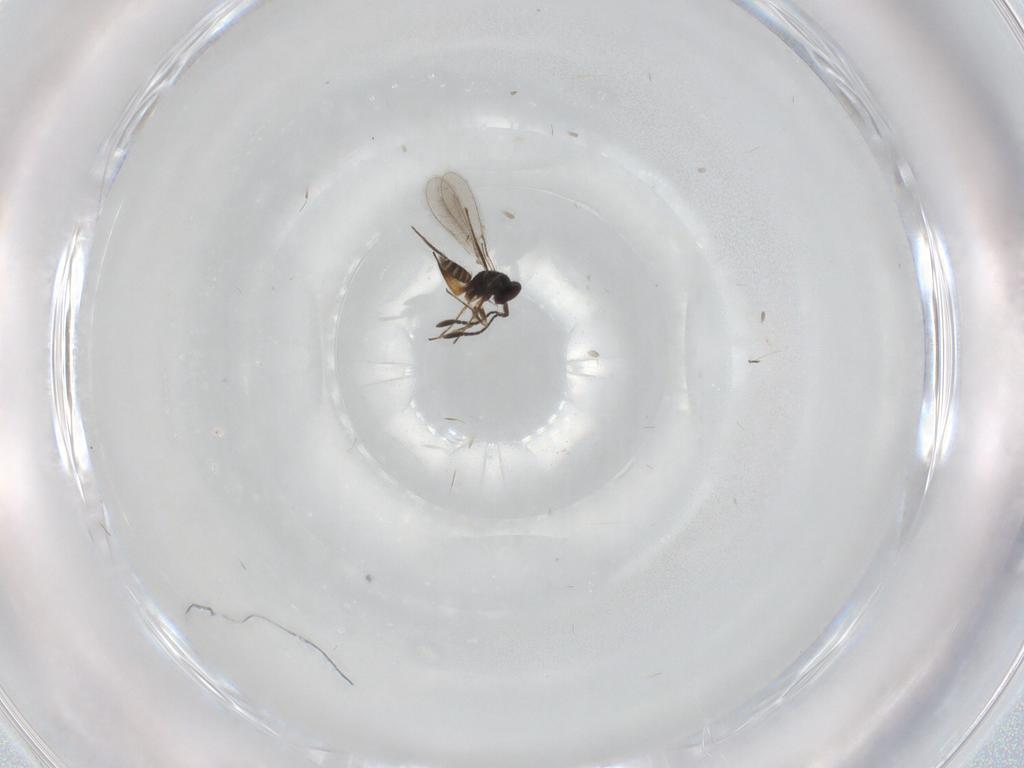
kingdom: Animalia
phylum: Arthropoda
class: Insecta
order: Hymenoptera
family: Mymaridae
